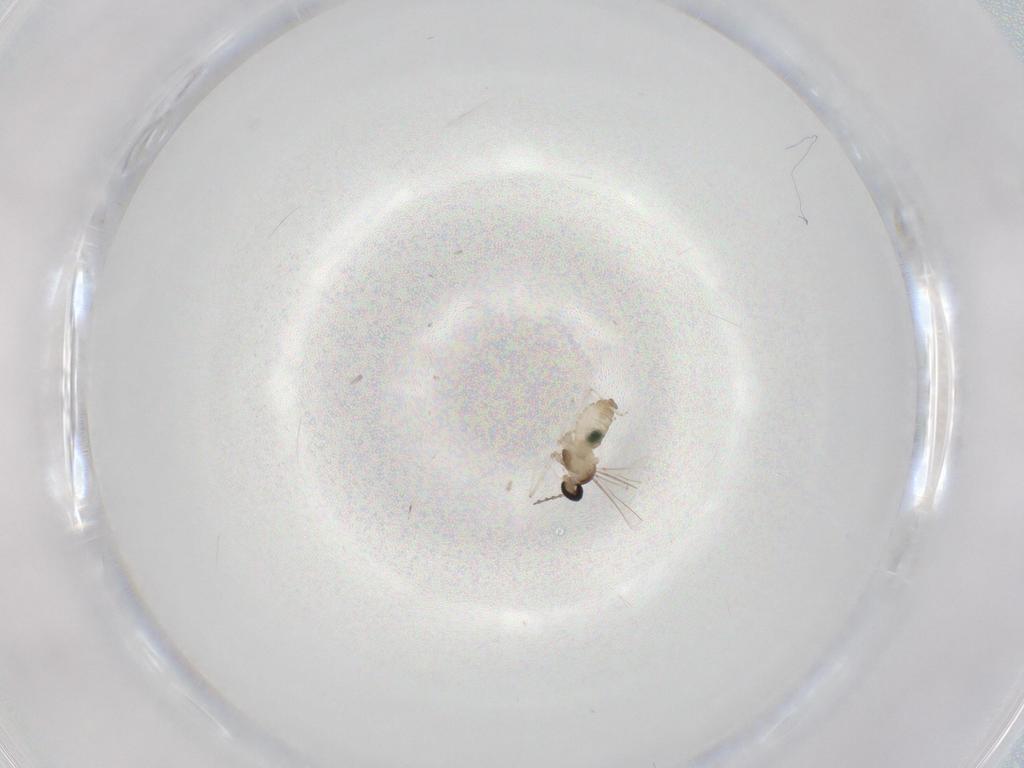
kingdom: Animalia
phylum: Arthropoda
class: Insecta
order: Diptera
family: Cecidomyiidae
